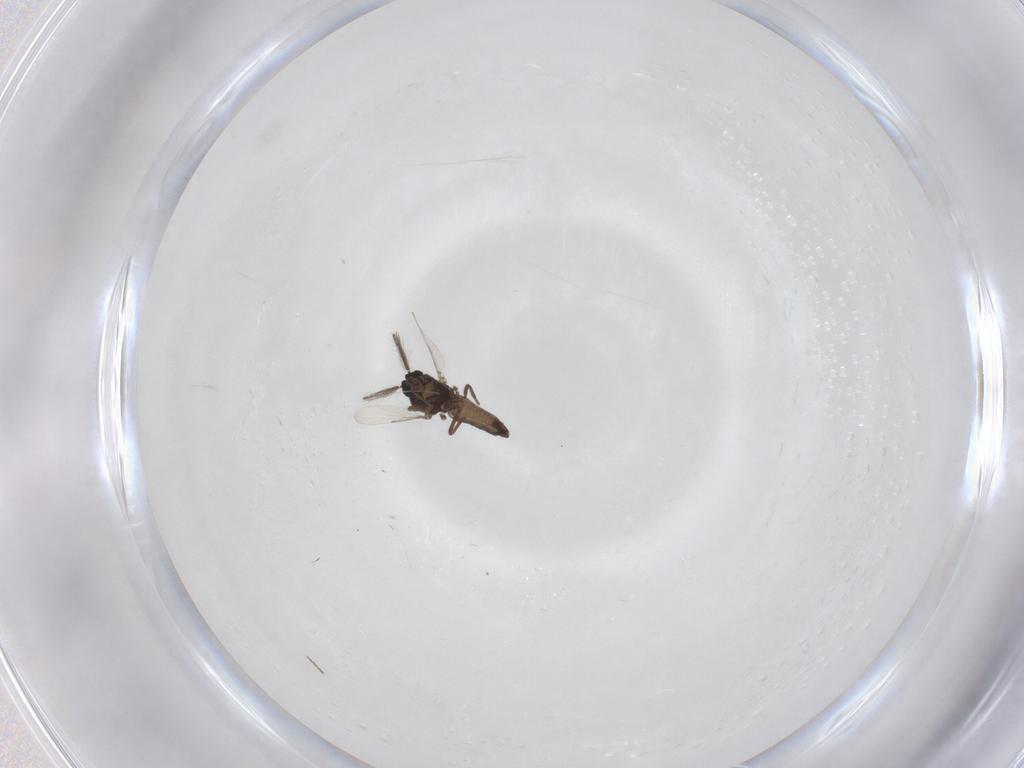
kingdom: Animalia
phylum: Arthropoda
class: Insecta
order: Diptera
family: Ceratopogonidae
